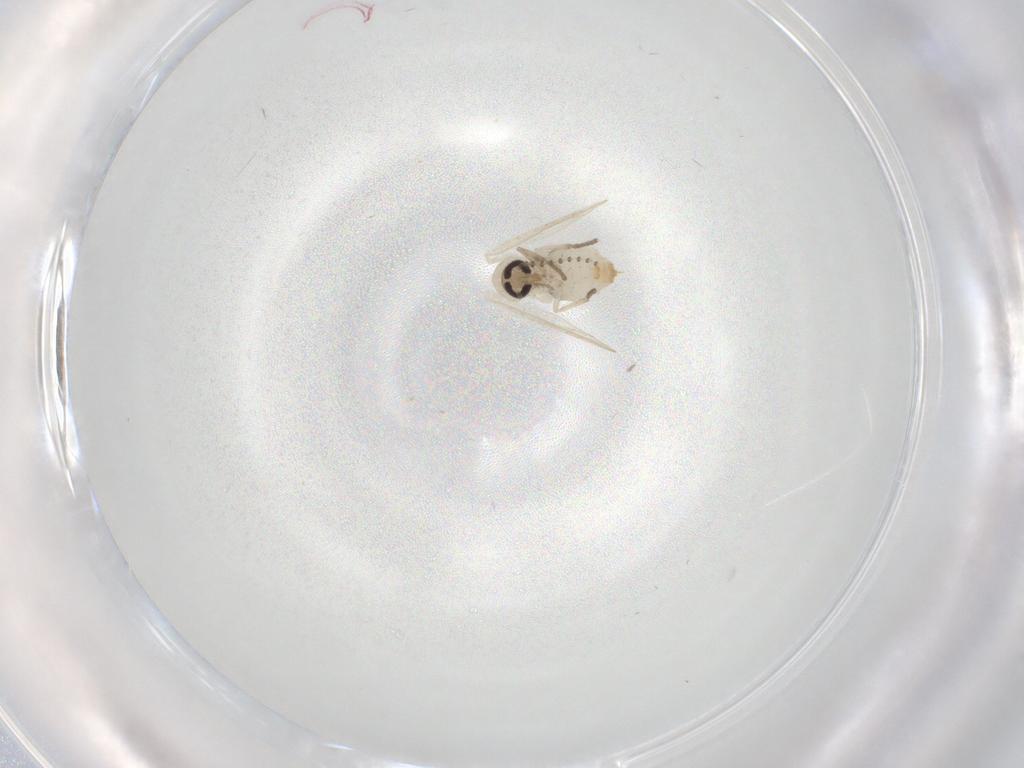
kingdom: Animalia
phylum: Arthropoda
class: Insecta
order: Diptera
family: Psychodidae
